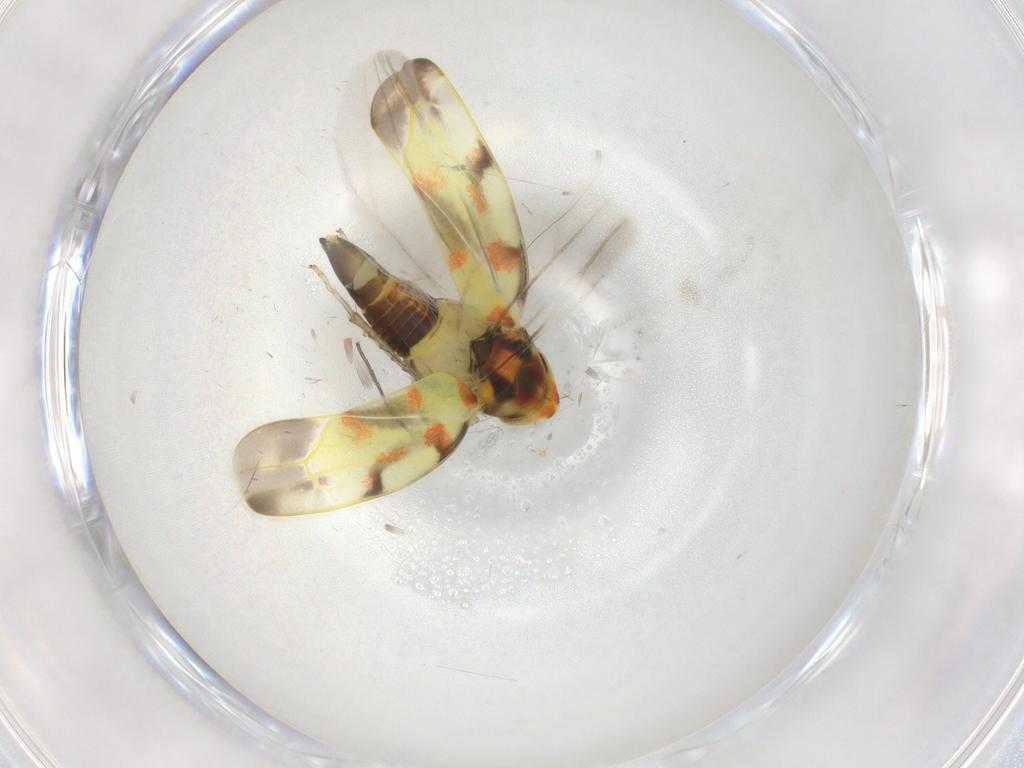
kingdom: Animalia
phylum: Arthropoda
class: Insecta
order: Hemiptera
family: Cicadellidae
